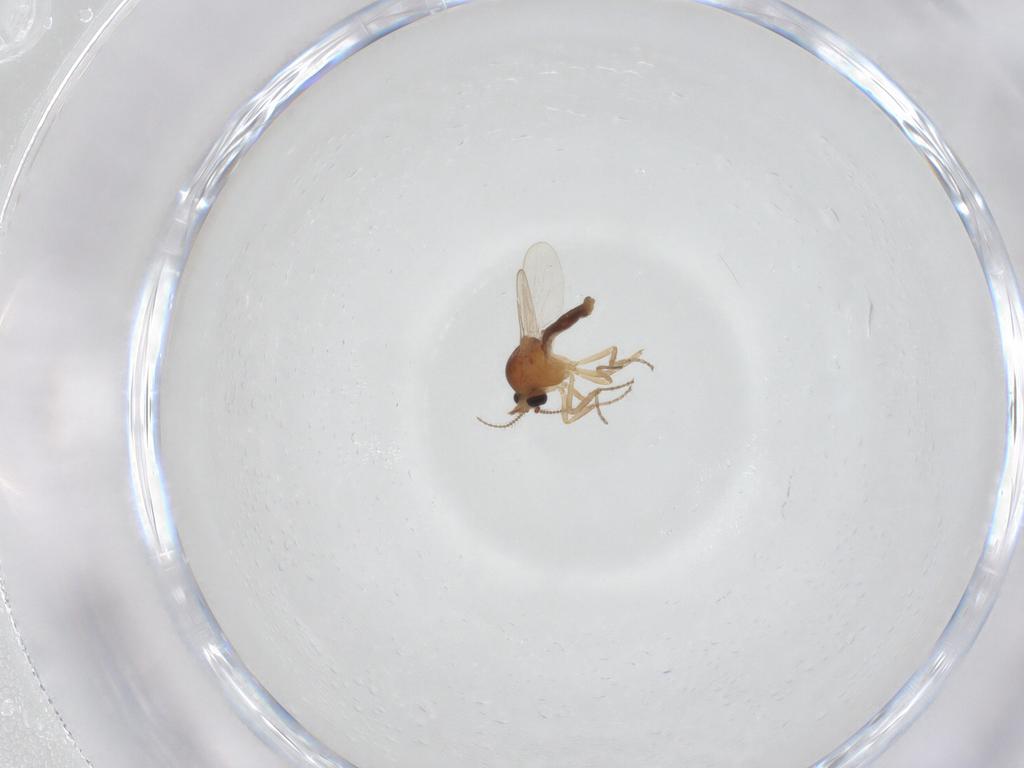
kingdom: Animalia
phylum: Arthropoda
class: Insecta
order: Diptera
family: Ceratopogonidae
